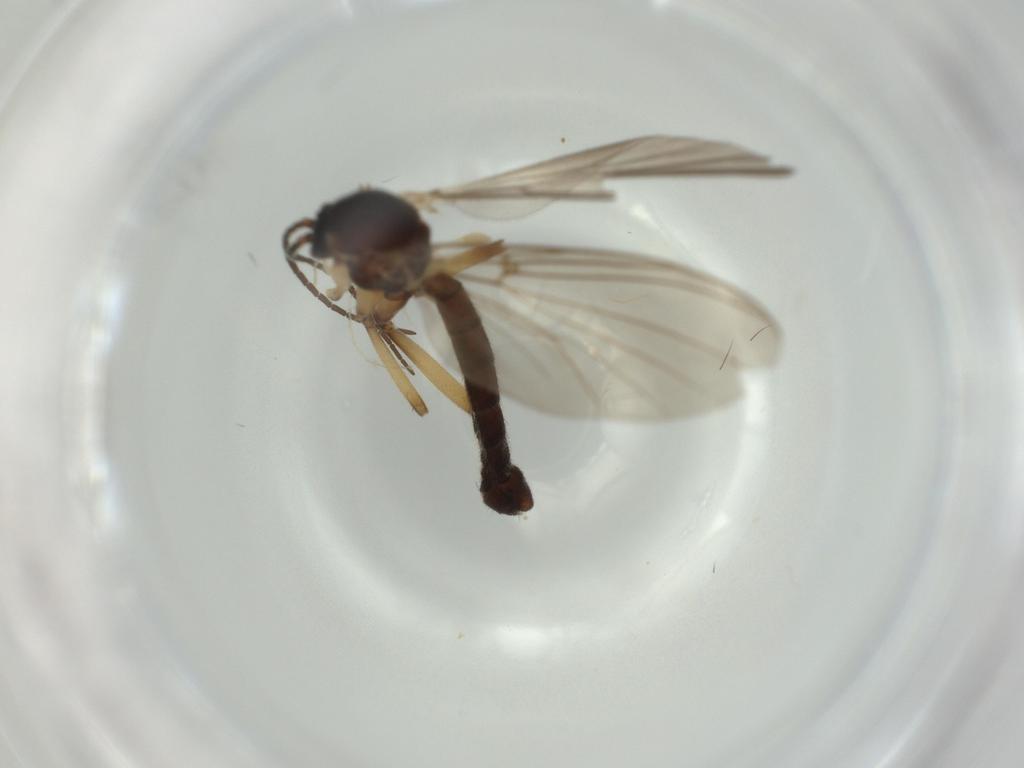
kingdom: Animalia
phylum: Arthropoda
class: Insecta
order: Diptera
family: Mycetophilidae
